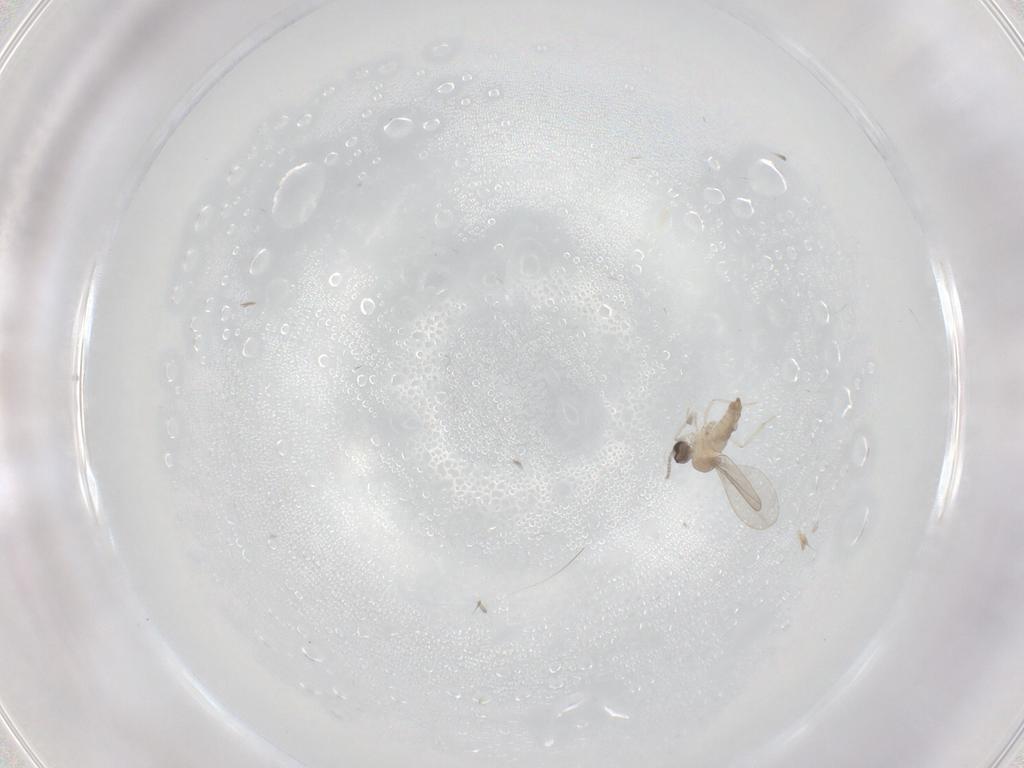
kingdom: Animalia
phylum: Arthropoda
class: Insecta
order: Diptera
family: Cecidomyiidae
